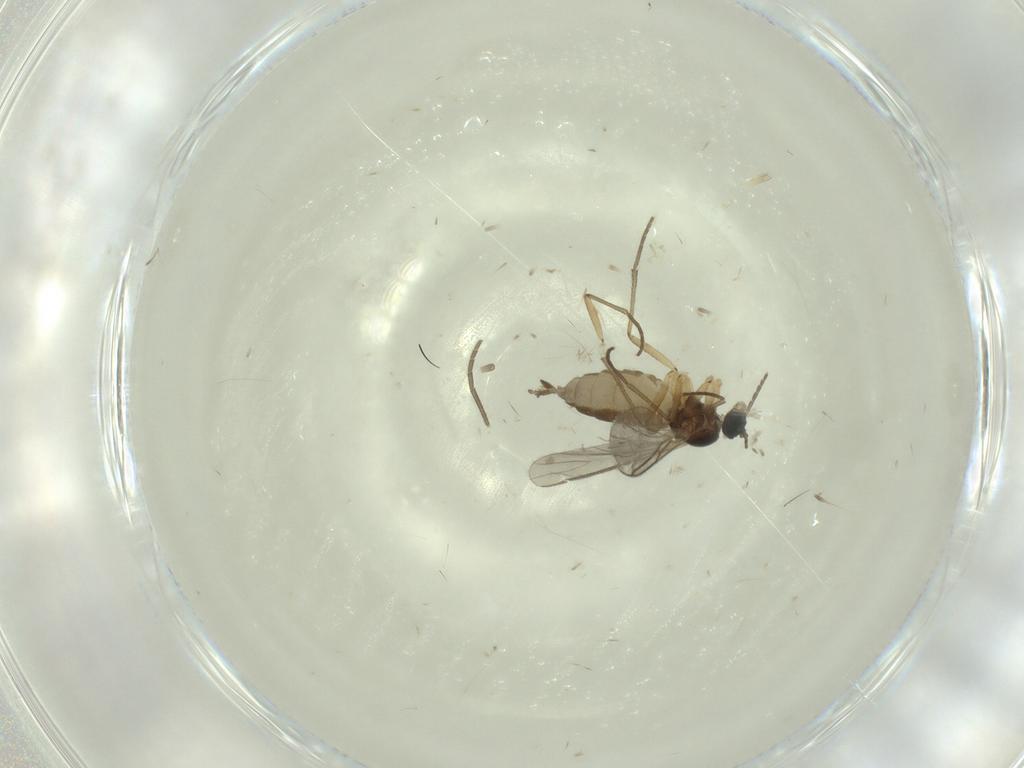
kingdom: Animalia
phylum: Arthropoda
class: Insecta
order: Diptera
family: Sciaridae
